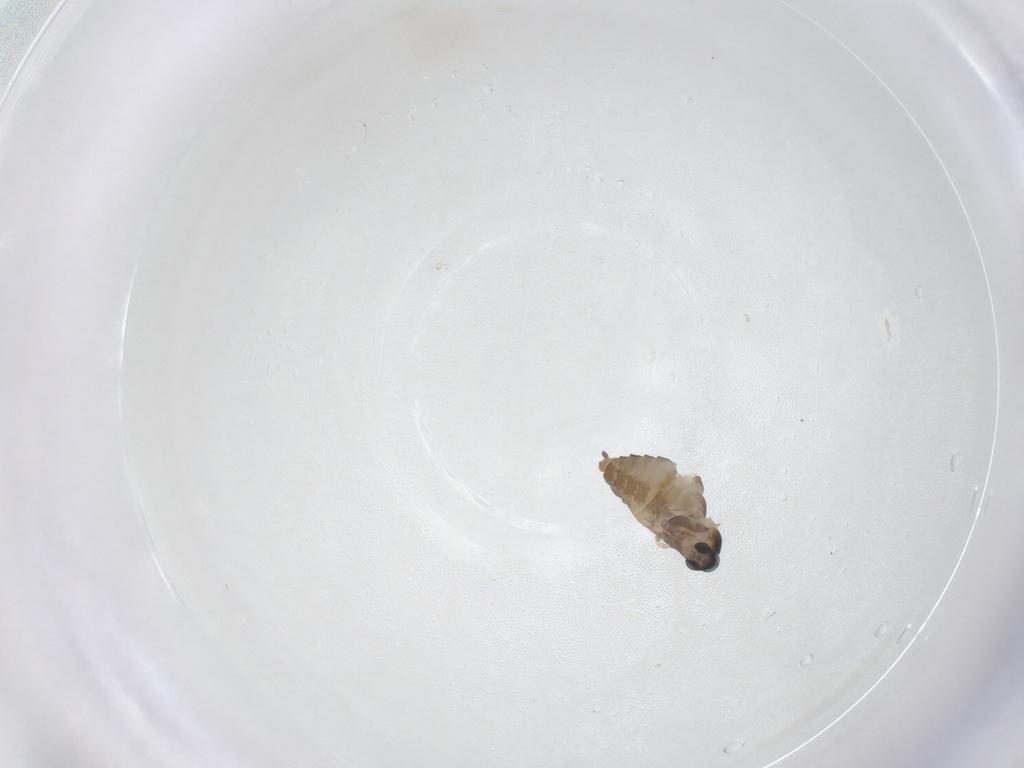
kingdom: Animalia
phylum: Arthropoda
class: Insecta
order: Diptera
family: Cecidomyiidae
